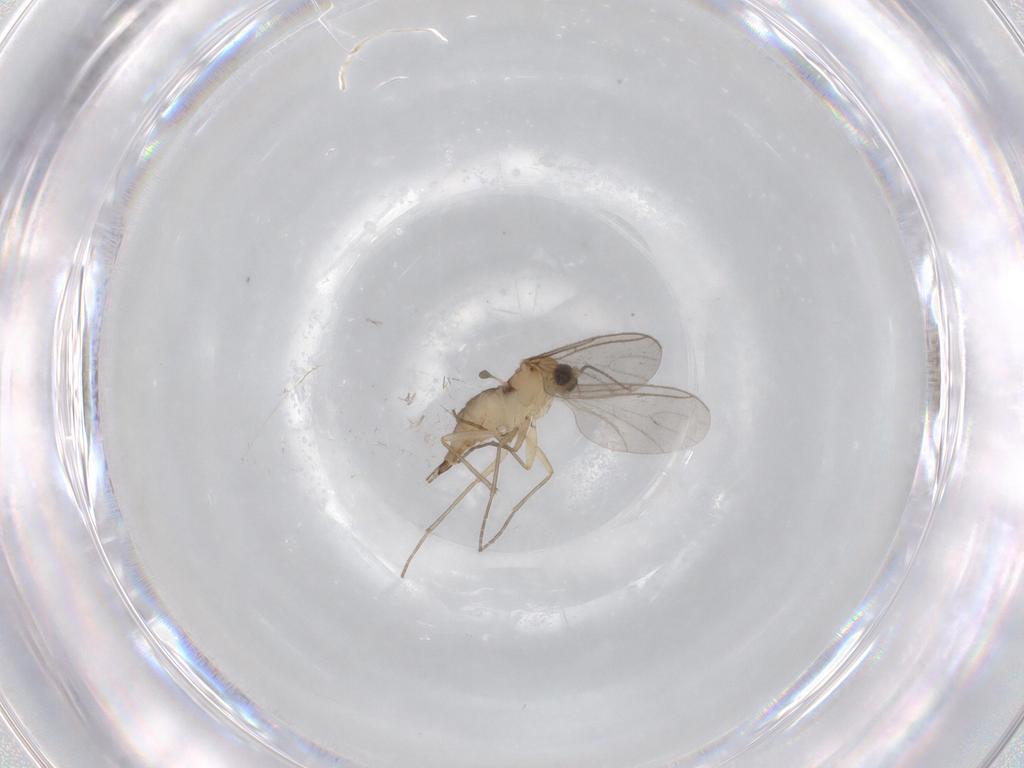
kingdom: Animalia
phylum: Arthropoda
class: Insecta
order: Diptera
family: Sciaridae
